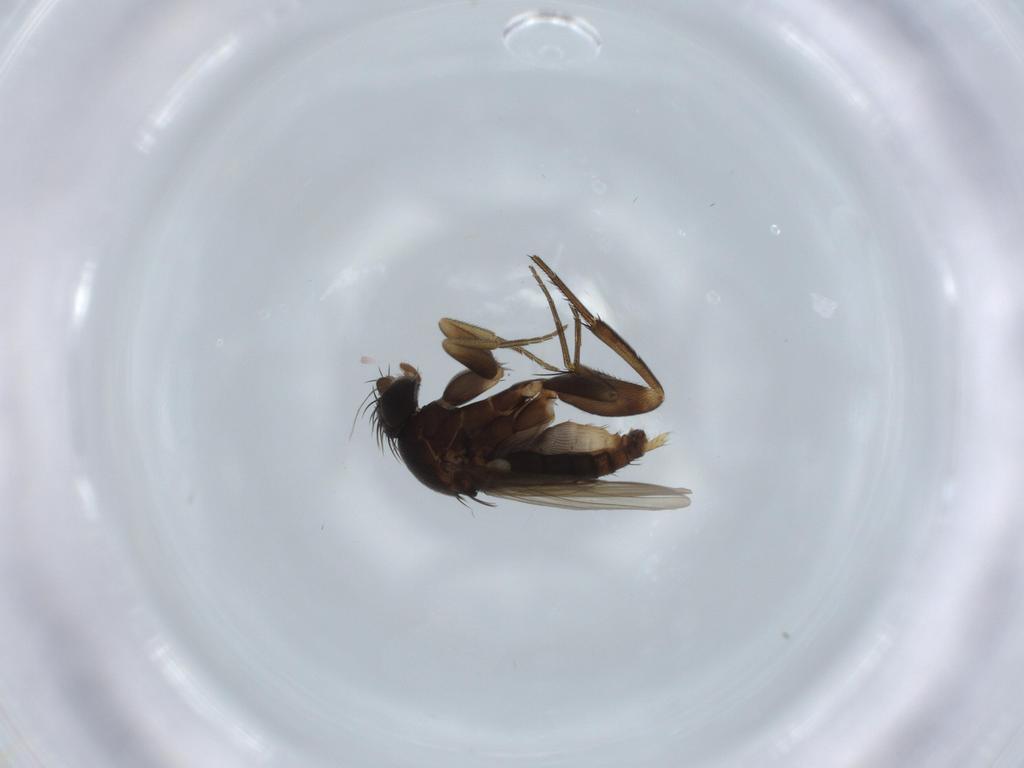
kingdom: Animalia
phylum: Arthropoda
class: Insecta
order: Diptera
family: Phoridae
